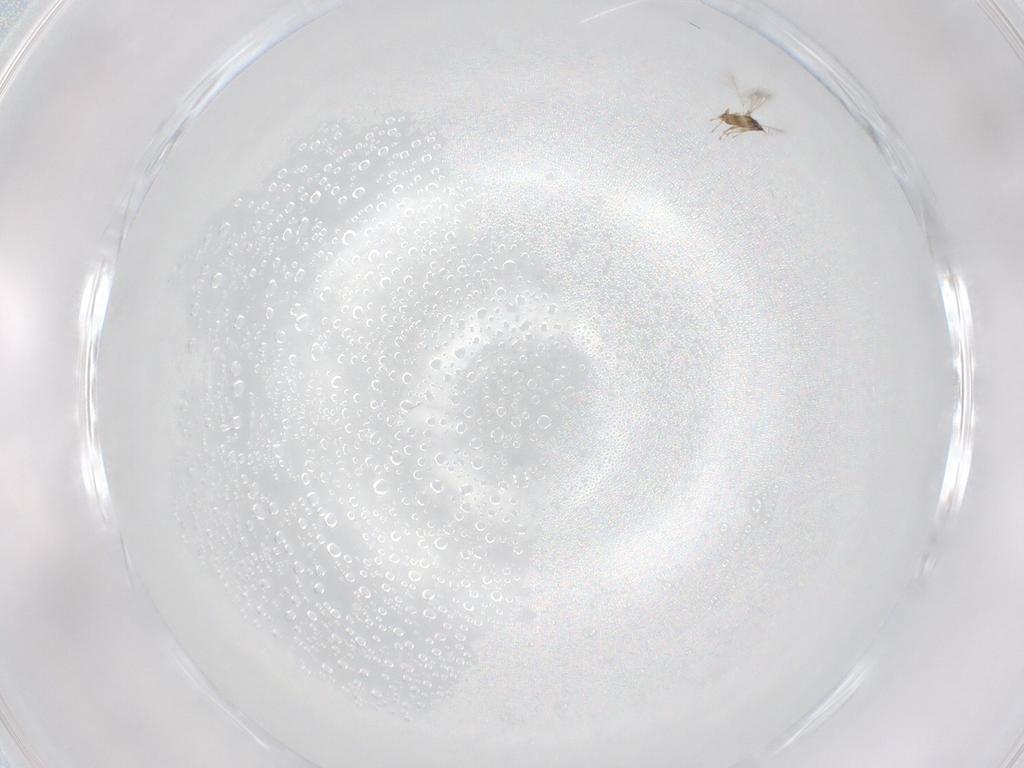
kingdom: Animalia
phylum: Arthropoda
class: Insecta
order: Hymenoptera
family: Mymaridae
